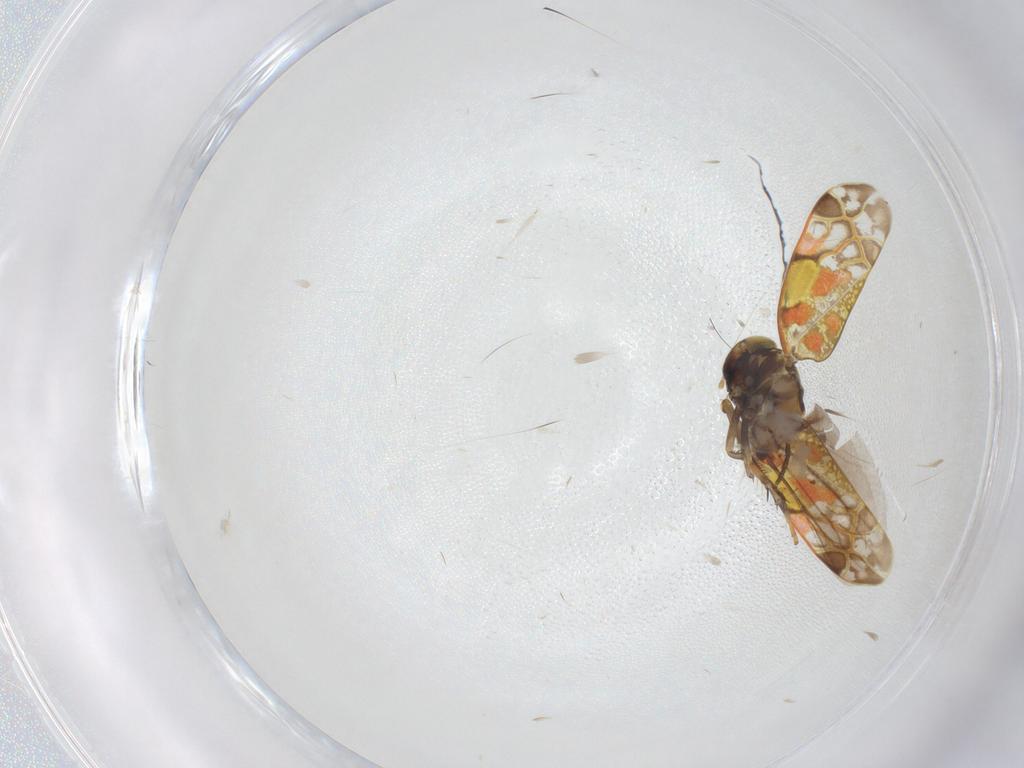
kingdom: Animalia
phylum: Arthropoda
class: Insecta
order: Hemiptera
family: Cicadellidae
